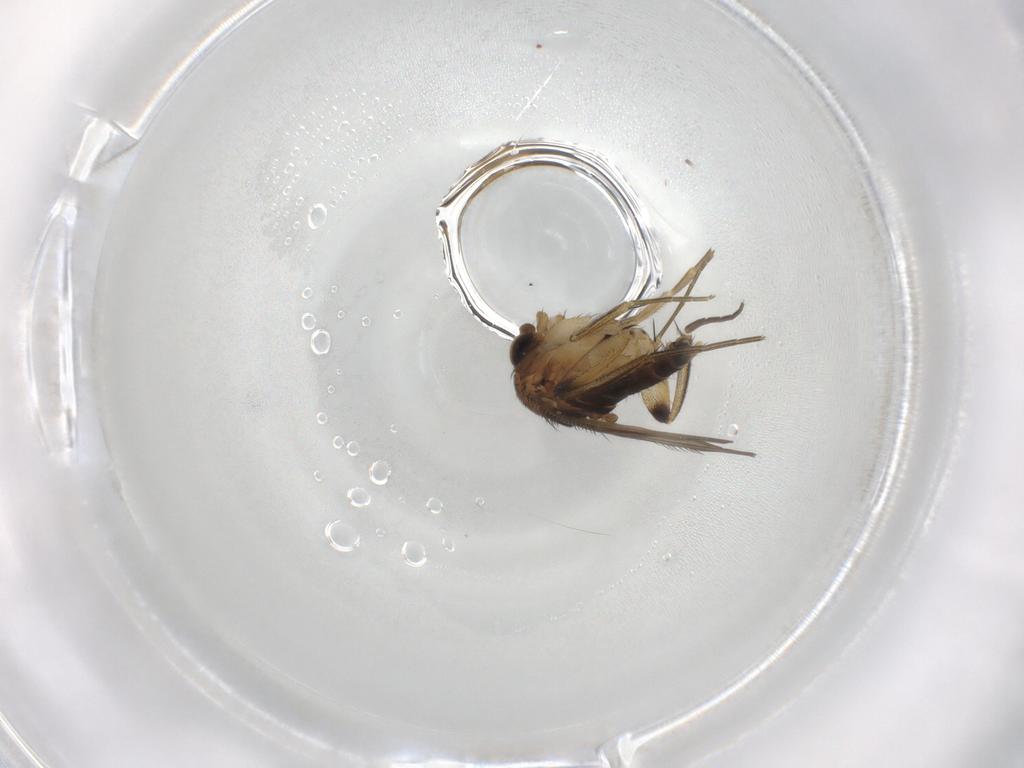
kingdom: Animalia
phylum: Arthropoda
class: Insecta
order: Diptera
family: Phoridae
